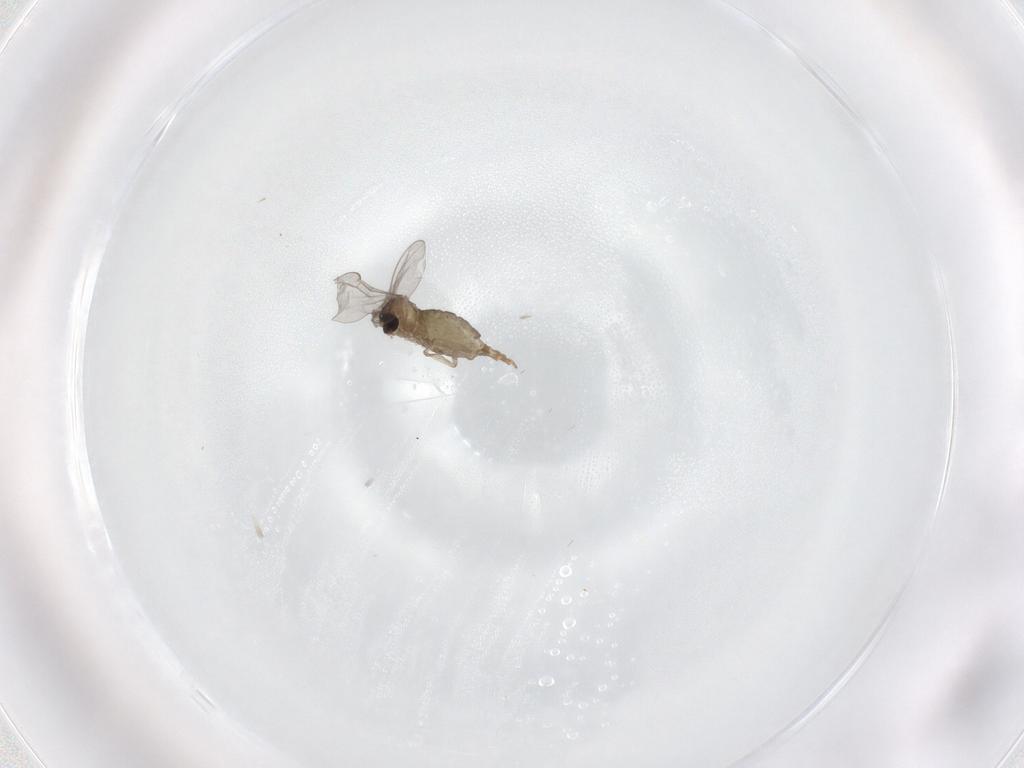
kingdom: Animalia
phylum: Arthropoda
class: Insecta
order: Diptera
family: Cecidomyiidae
